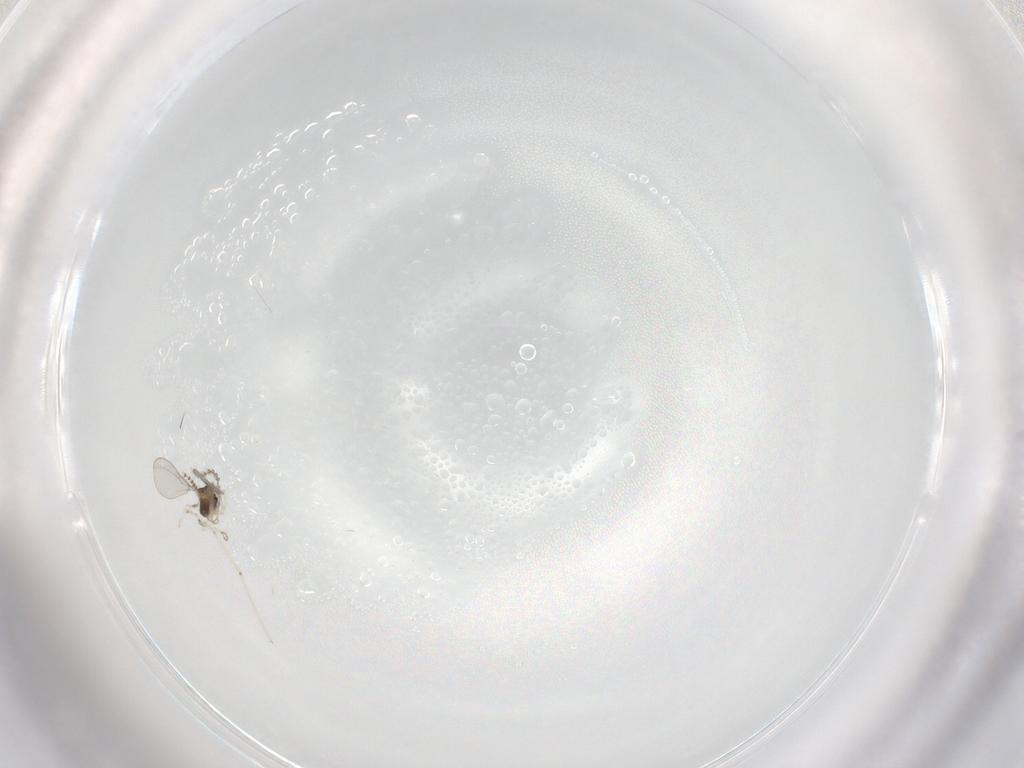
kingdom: Animalia
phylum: Arthropoda
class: Insecta
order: Diptera
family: Cecidomyiidae
